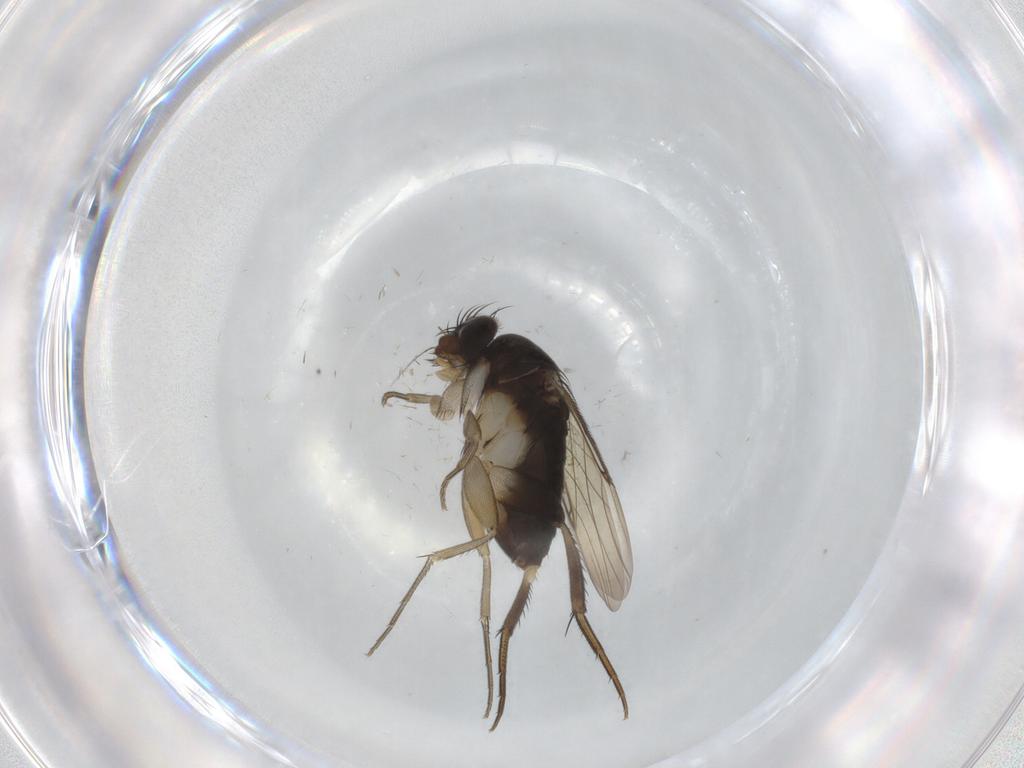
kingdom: Animalia
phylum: Arthropoda
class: Insecta
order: Diptera
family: Phoridae
